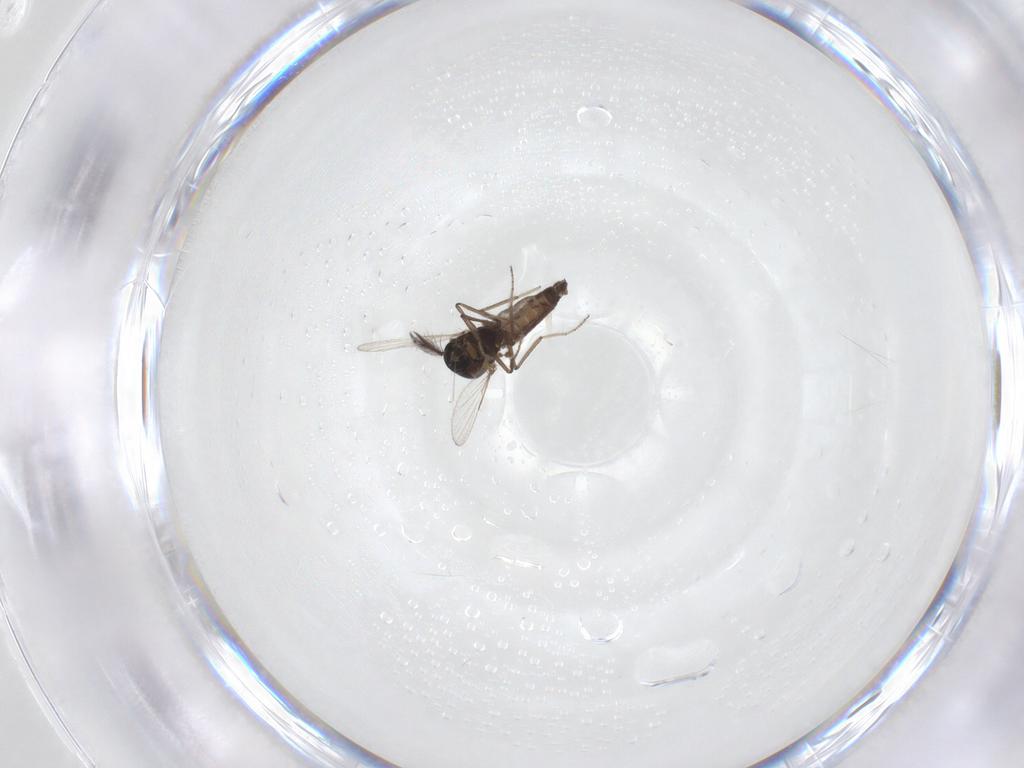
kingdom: Animalia
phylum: Arthropoda
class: Insecta
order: Diptera
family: Ceratopogonidae
